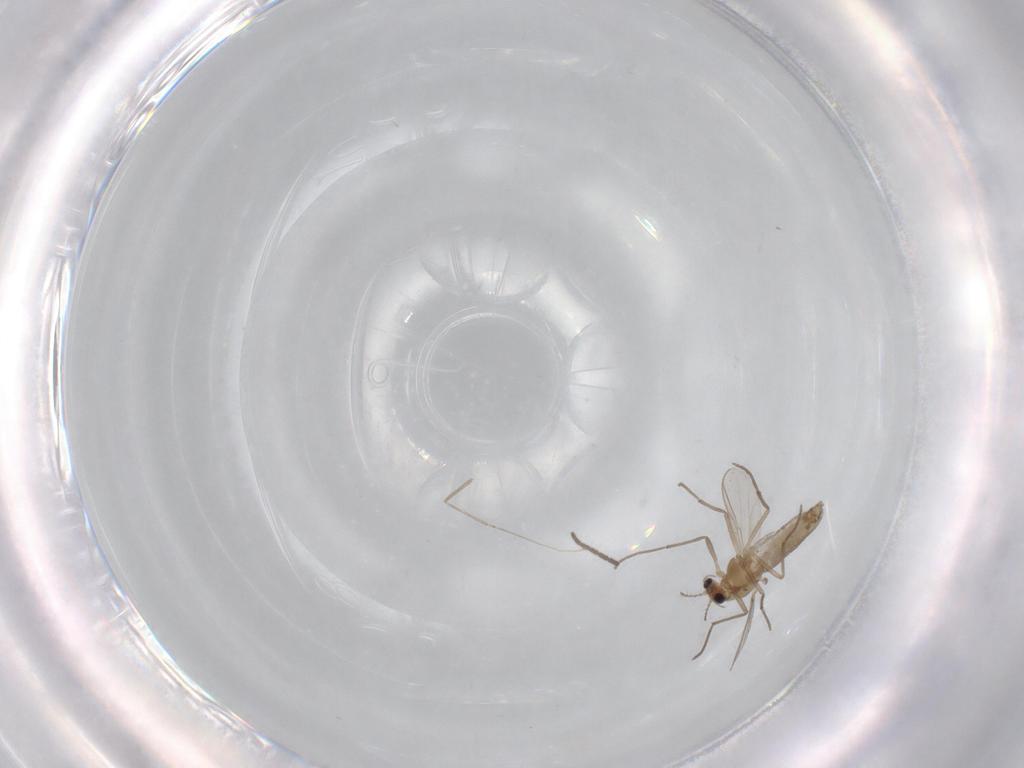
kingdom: Animalia
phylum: Arthropoda
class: Insecta
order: Diptera
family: Chironomidae
